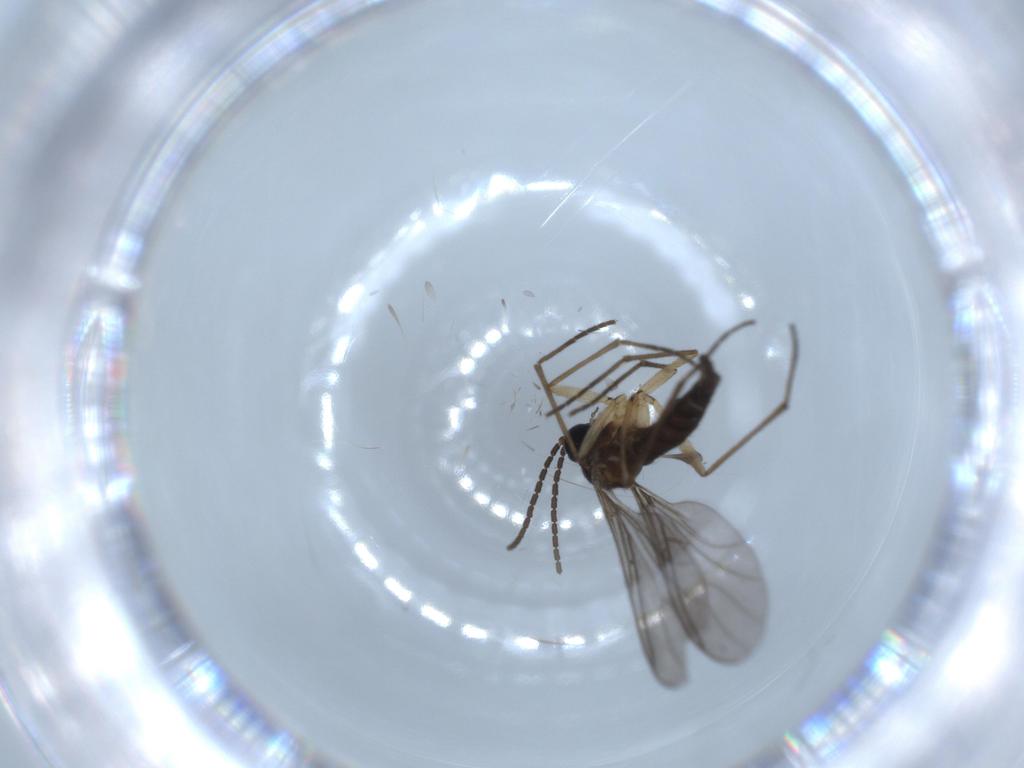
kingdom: Animalia
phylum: Arthropoda
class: Insecta
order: Diptera
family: Sciaridae
